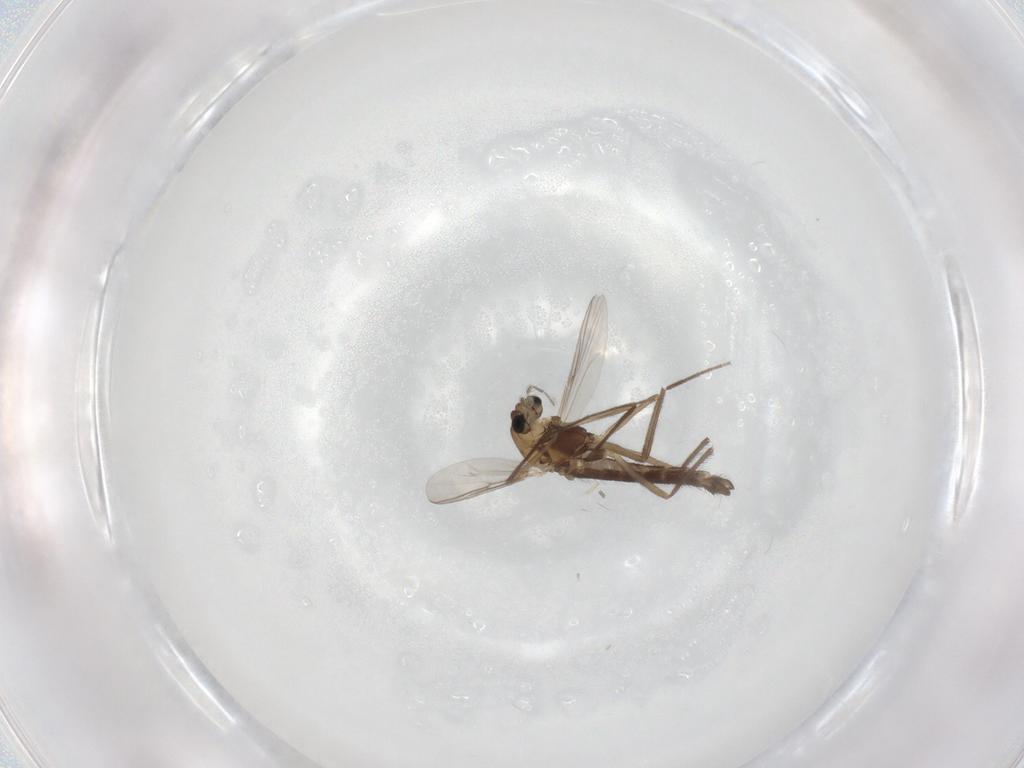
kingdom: Animalia
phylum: Arthropoda
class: Insecta
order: Diptera
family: Chironomidae
